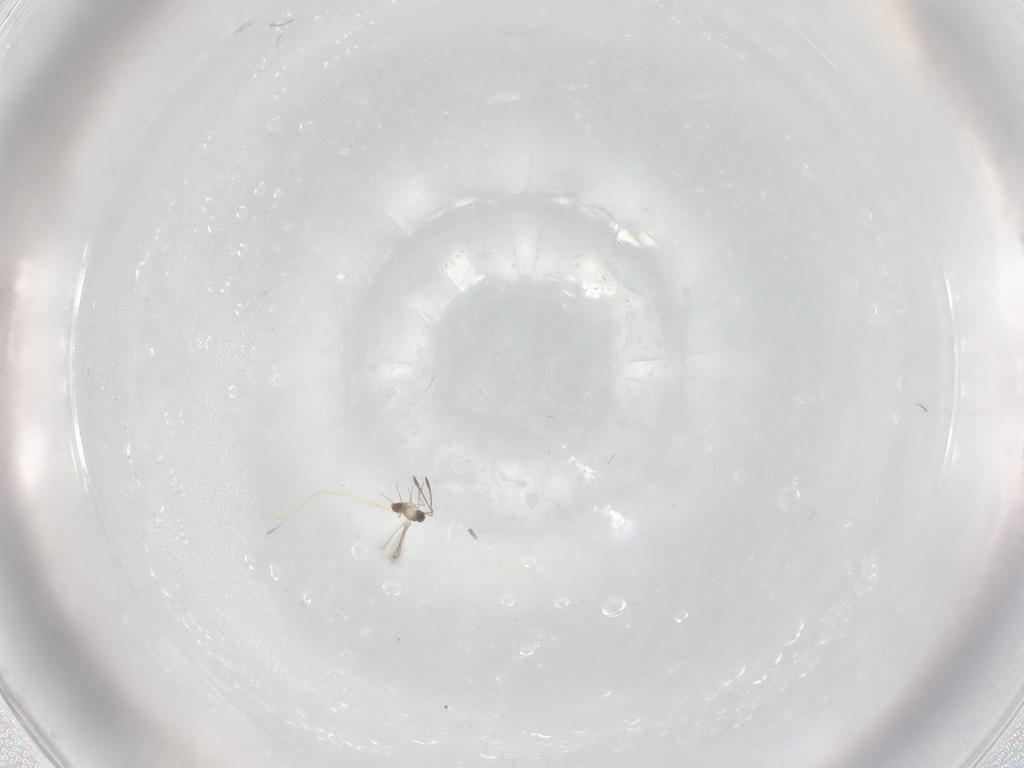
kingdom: Animalia
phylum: Arthropoda
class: Insecta
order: Hymenoptera
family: Mymaridae
